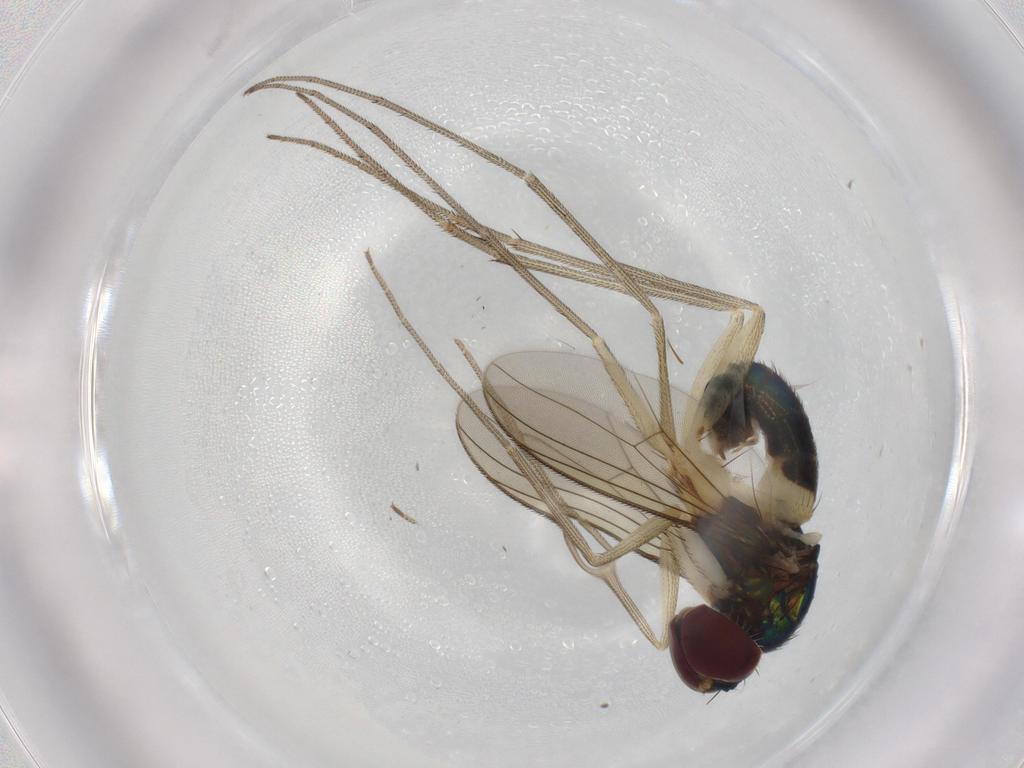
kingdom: Animalia
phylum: Arthropoda
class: Insecta
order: Diptera
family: Dolichopodidae
